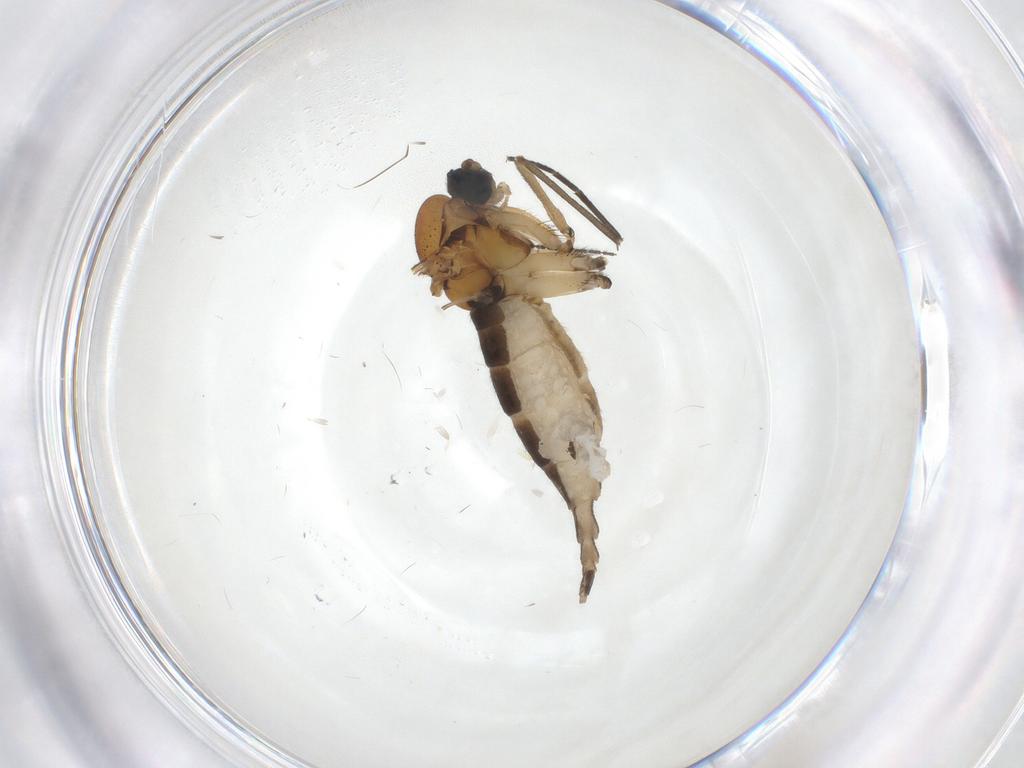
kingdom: Animalia
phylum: Arthropoda
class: Insecta
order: Diptera
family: Sciaridae
